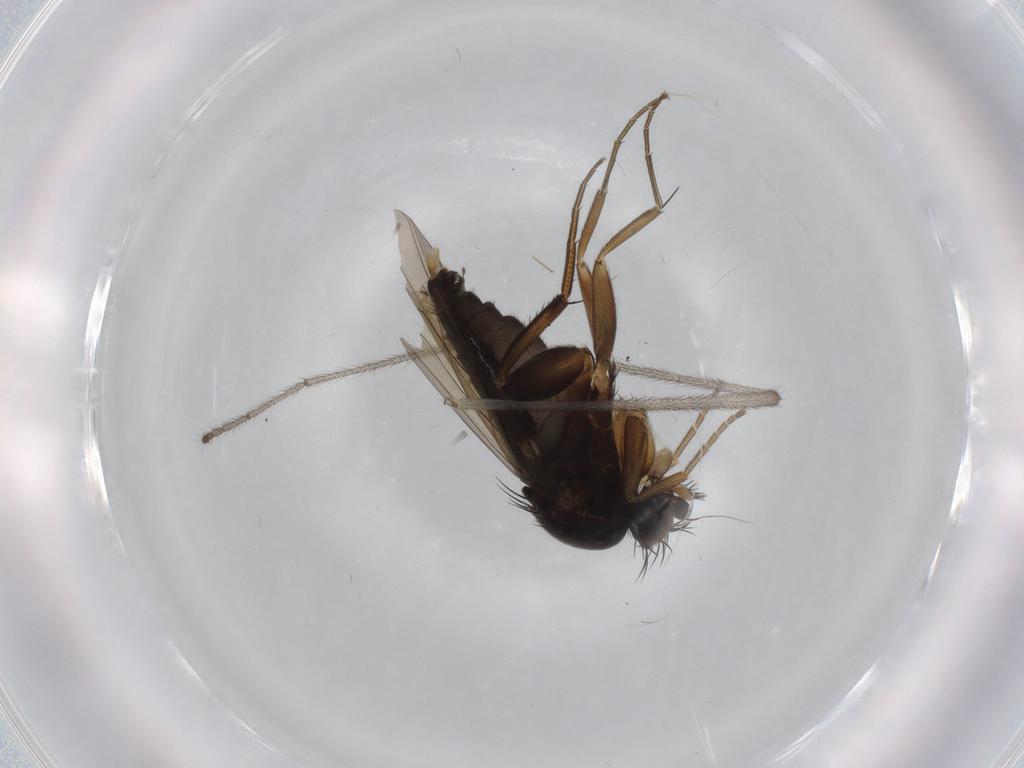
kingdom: Animalia
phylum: Arthropoda
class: Insecta
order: Diptera
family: Phoridae
